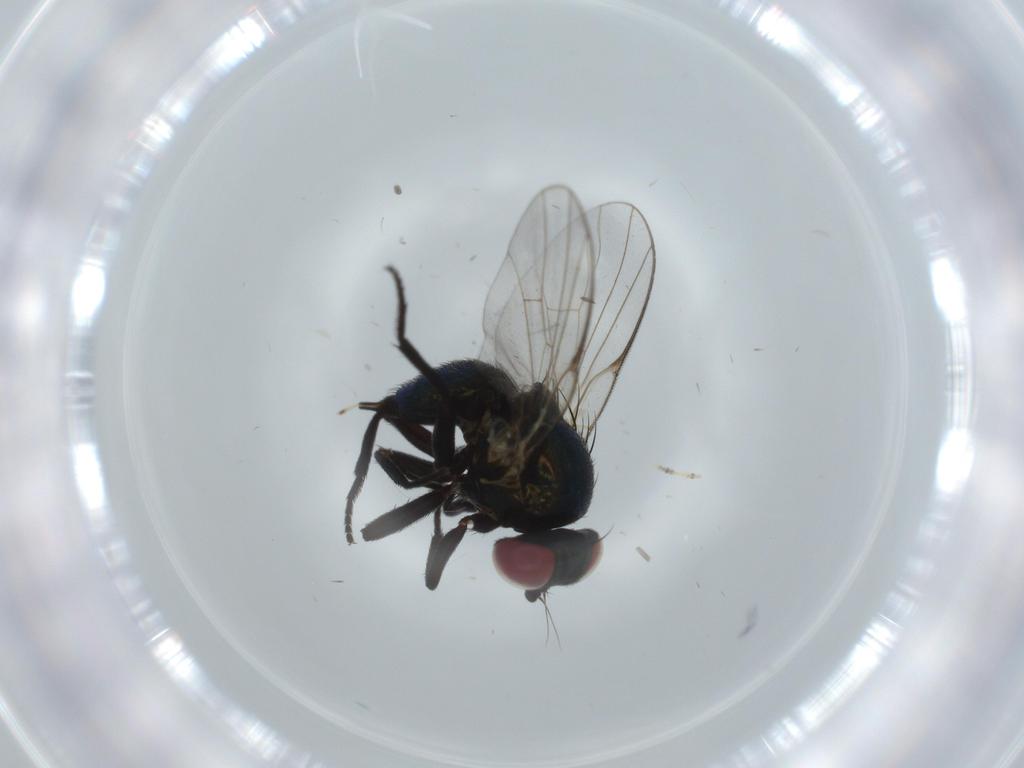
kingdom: Animalia
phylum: Arthropoda
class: Insecta
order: Diptera
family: Agromyzidae
